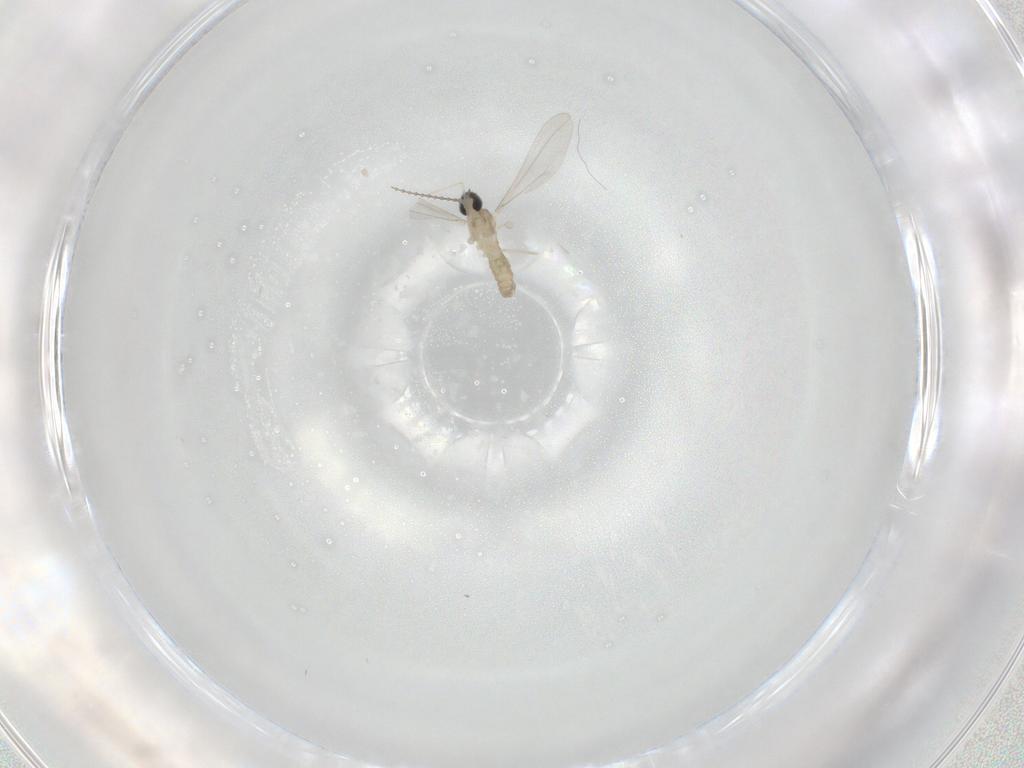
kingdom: Animalia
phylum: Arthropoda
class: Insecta
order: Diptera
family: Dolichopodidae
